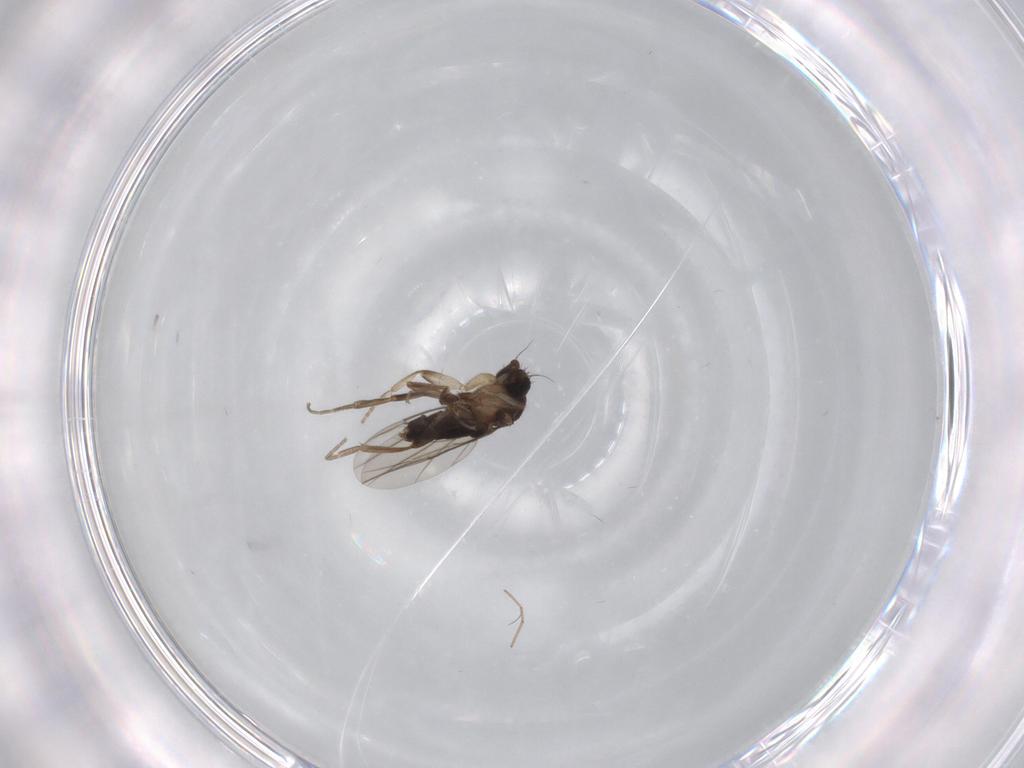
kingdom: Animalia
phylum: Arthropoda
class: Insecta
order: Diptera
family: Phoridae
